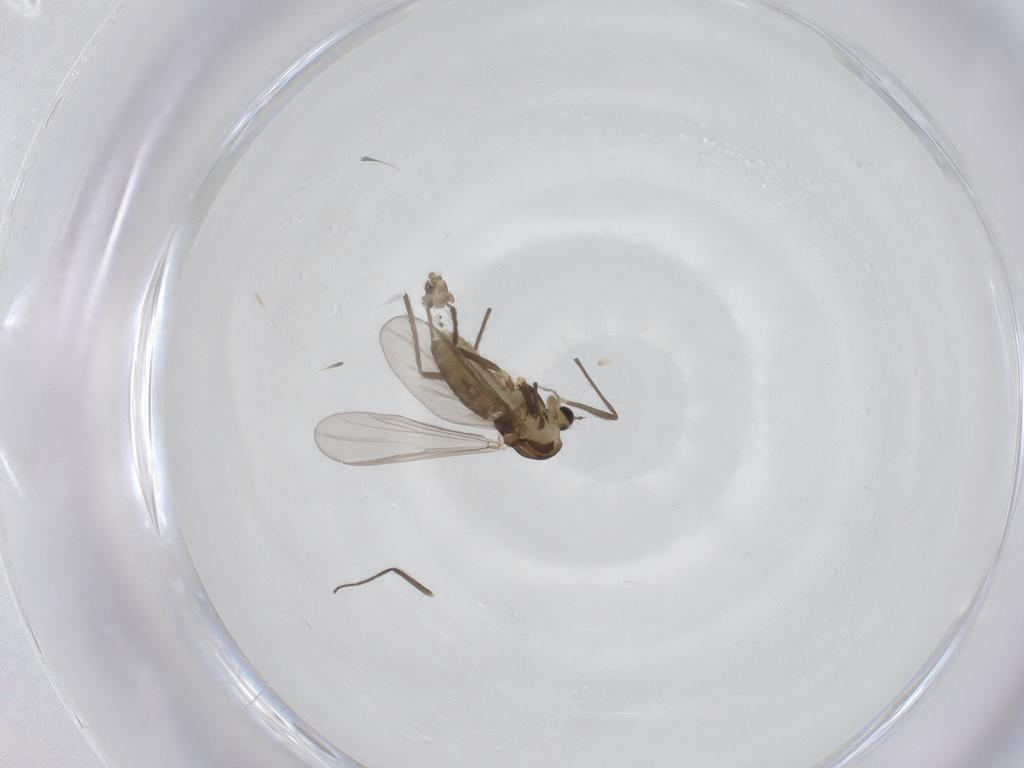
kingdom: Animalia
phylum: Arthropoda
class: Insecta
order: Diptera
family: Chironomidae
